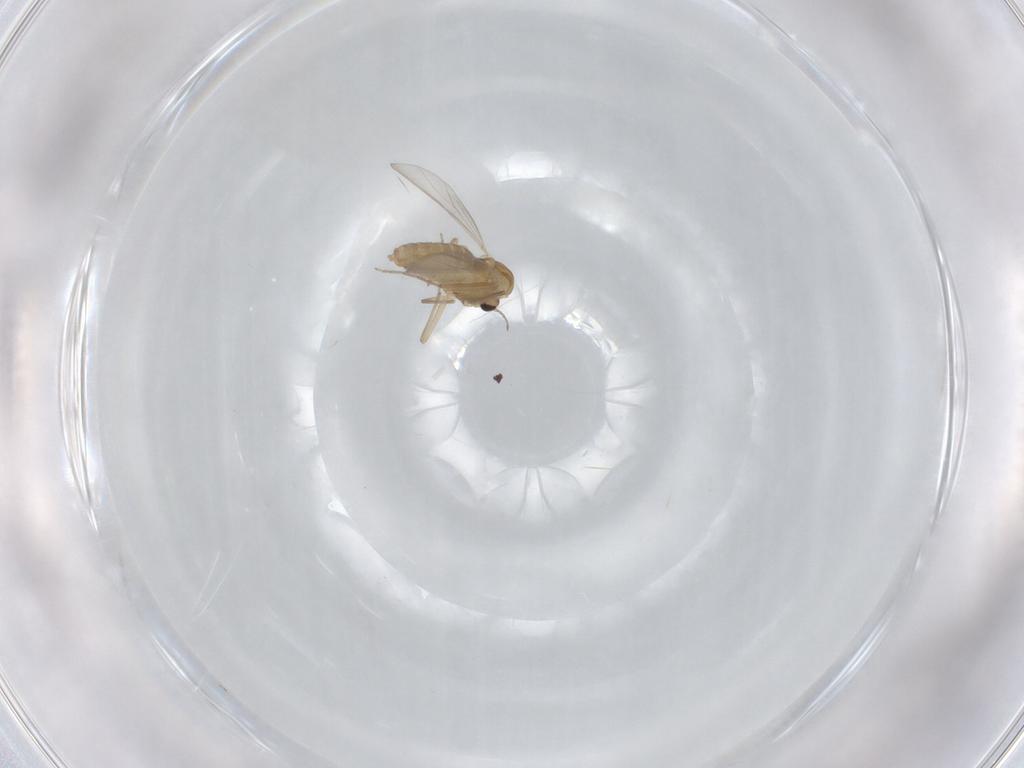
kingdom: Animalia
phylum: Arthropoda
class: Insecta
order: Diptera
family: Chironomidae
